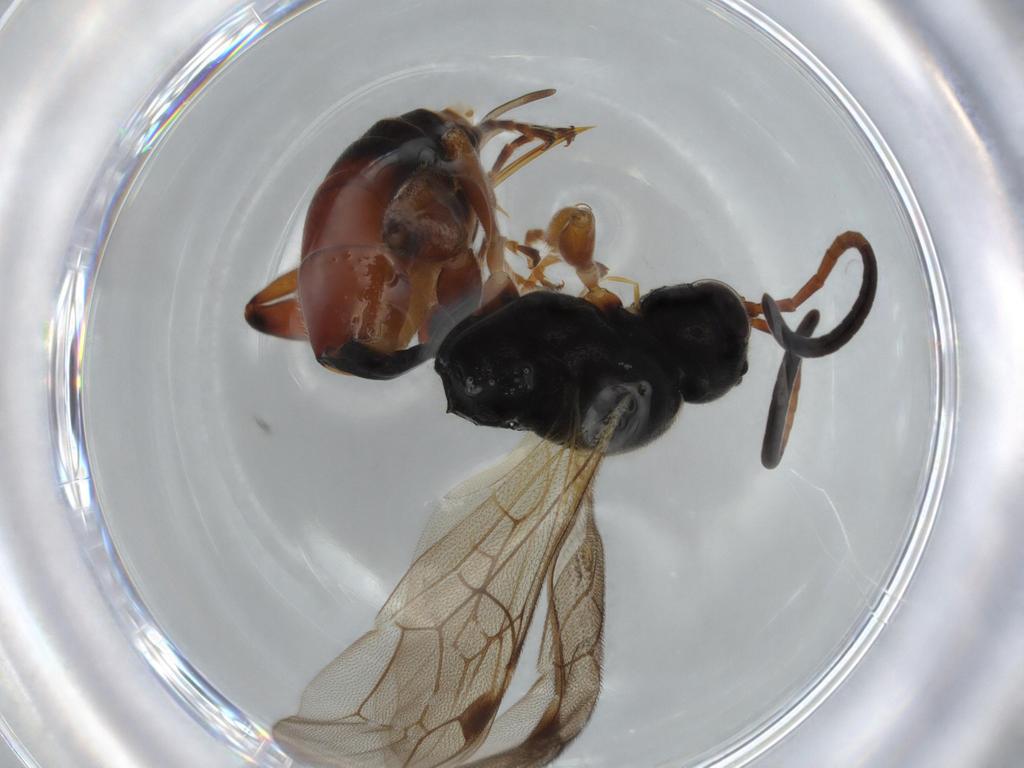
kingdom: Animalia
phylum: Arthropoda
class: Insecta
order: Hymenoptera
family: Ichneumonidae
